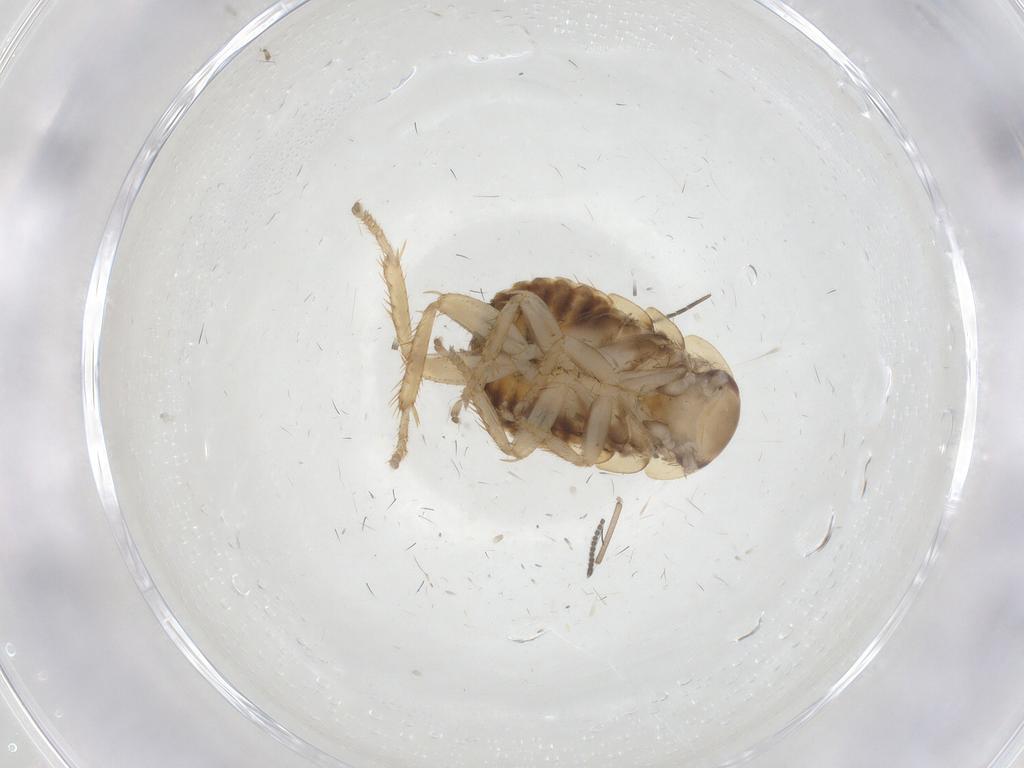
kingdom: Animalia
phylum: Arthropoda
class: Insecta
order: Blattodea
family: Ectobiidae
